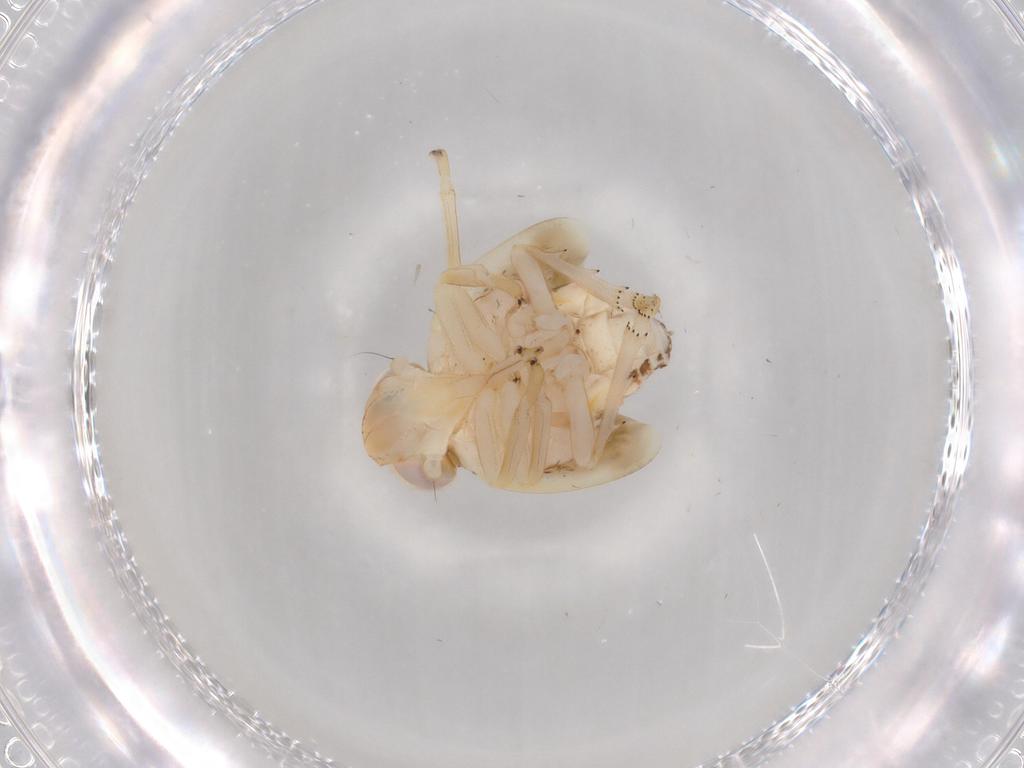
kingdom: Animalia
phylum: Arthropoda
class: Insecta
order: Hemiptera
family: Nogodinidae
